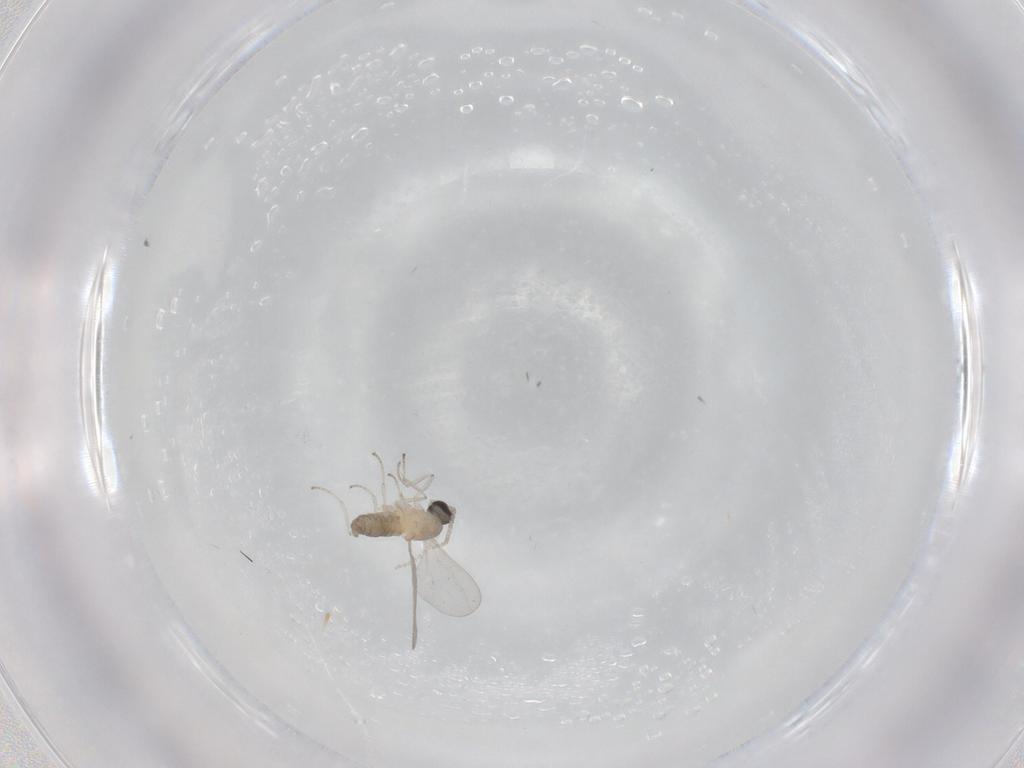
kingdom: Animalia
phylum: Arthropoda
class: Insecta
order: Diptera
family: Cecidomyiidae
